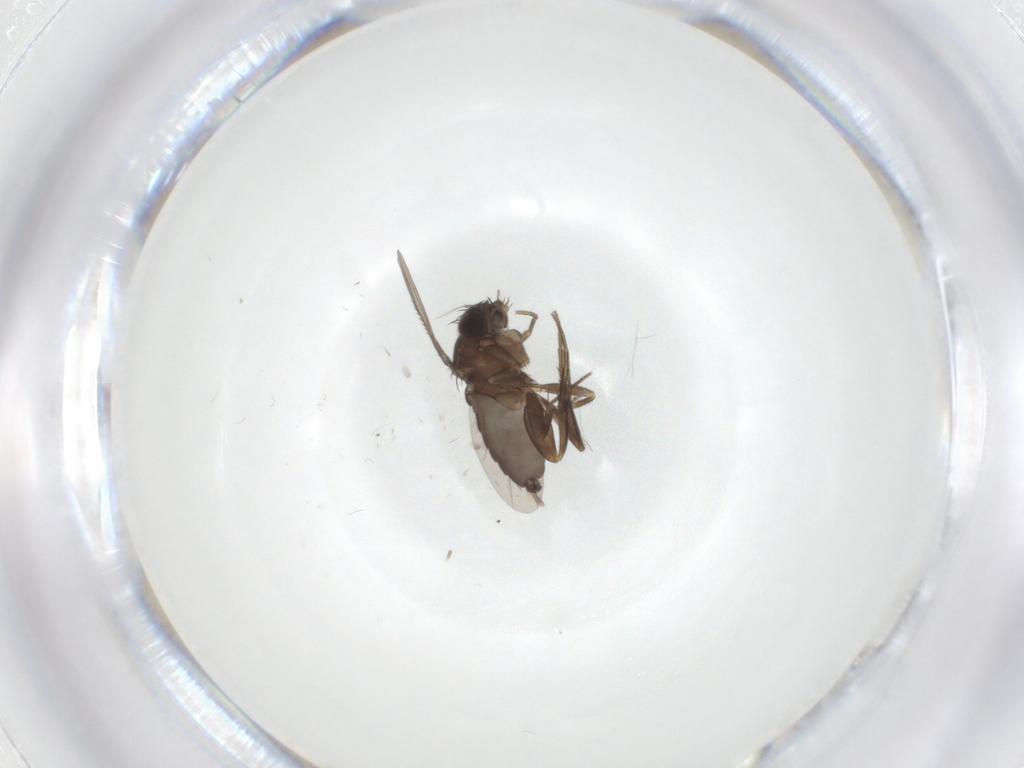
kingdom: Animalia
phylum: Arthropoda
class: Insecta
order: Diptera
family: Phoridae
